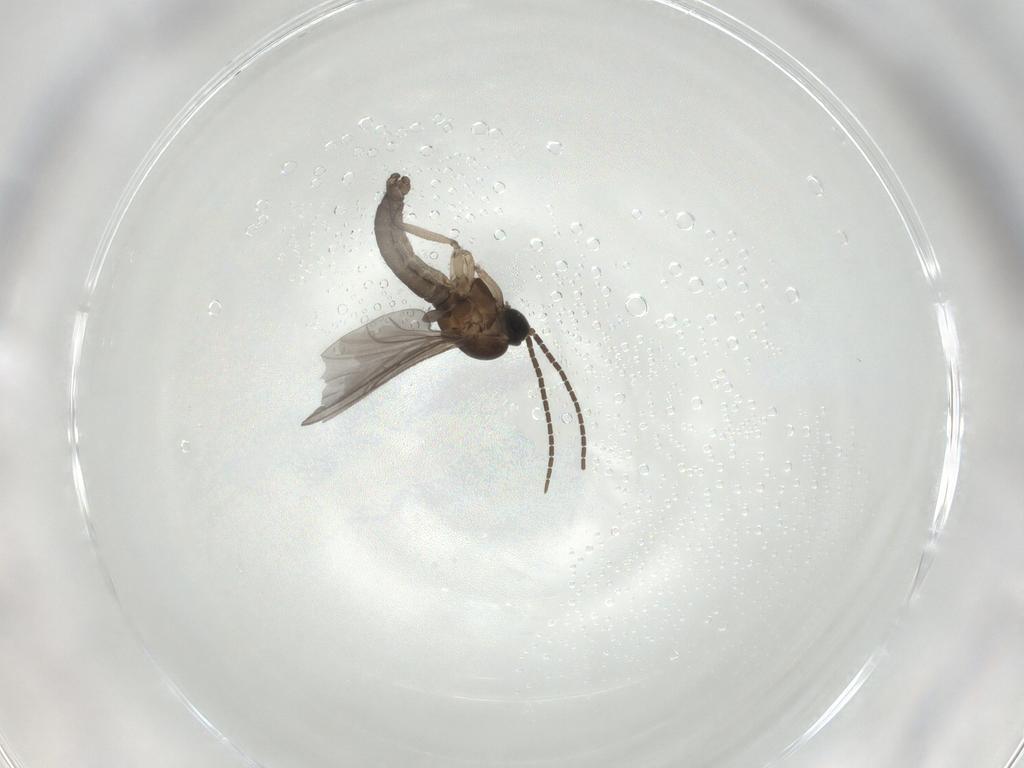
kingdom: Animalia
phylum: Arthropoda
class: Insecta
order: Diptera
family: Sciaridae
